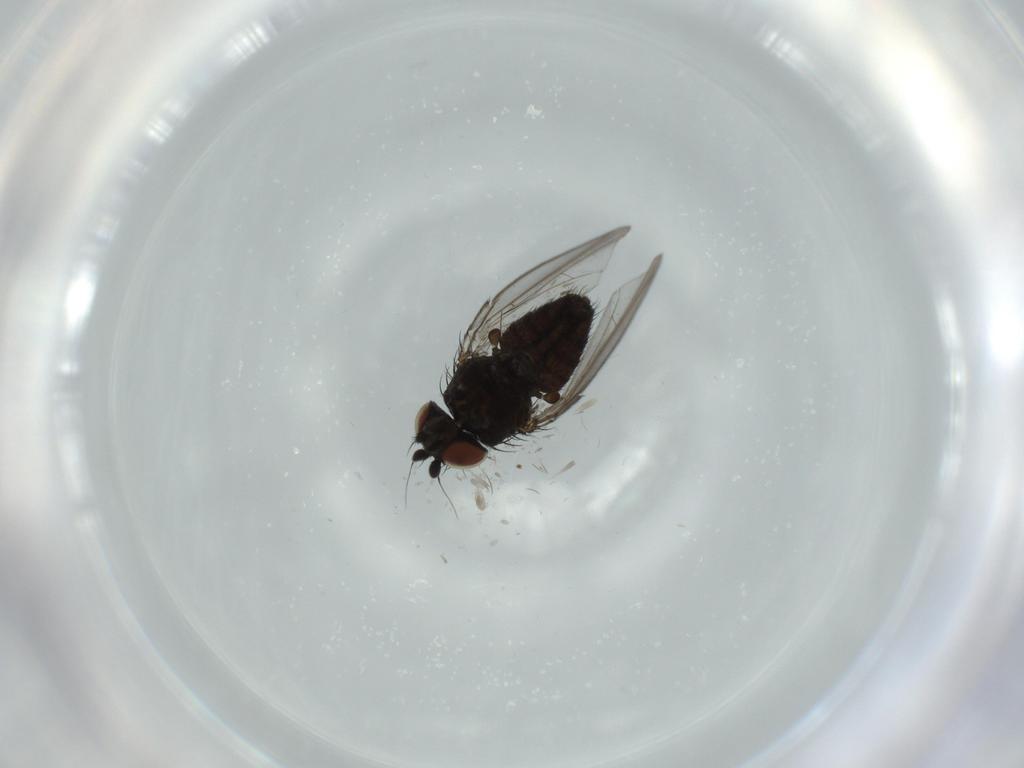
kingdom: Animalia
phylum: Arthropoda
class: Insecta
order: Diptera
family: Milichiidae
